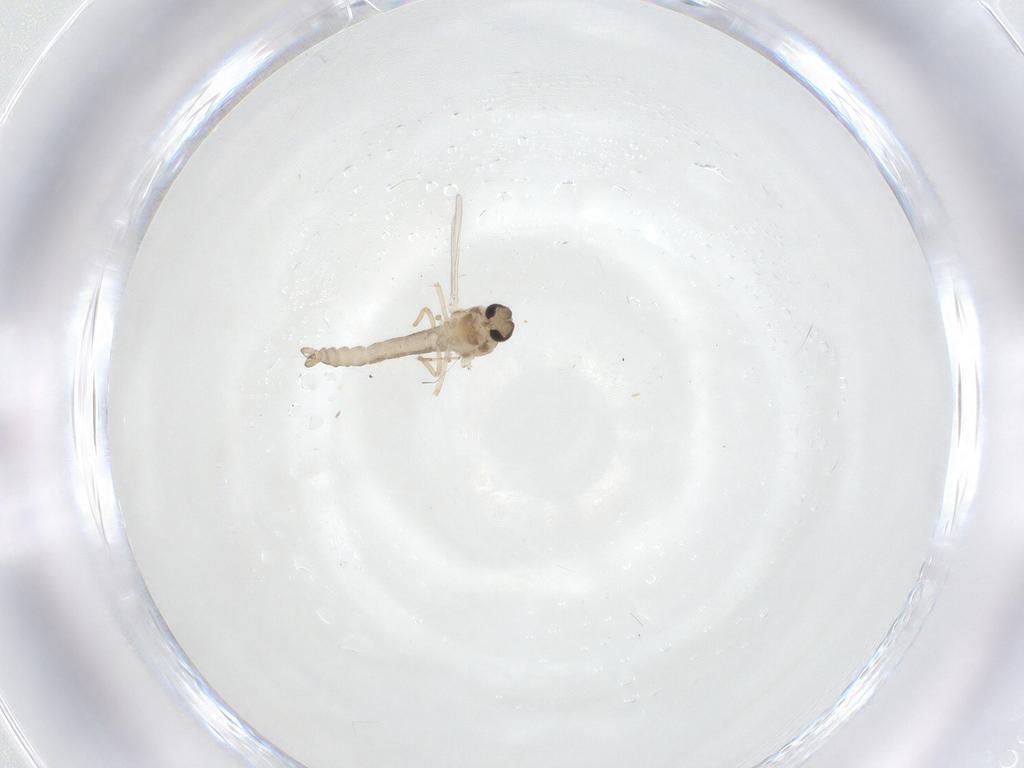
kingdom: Animalia
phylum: Arthropoda
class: Insecta
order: Diptera
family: Ceratopogonidae
